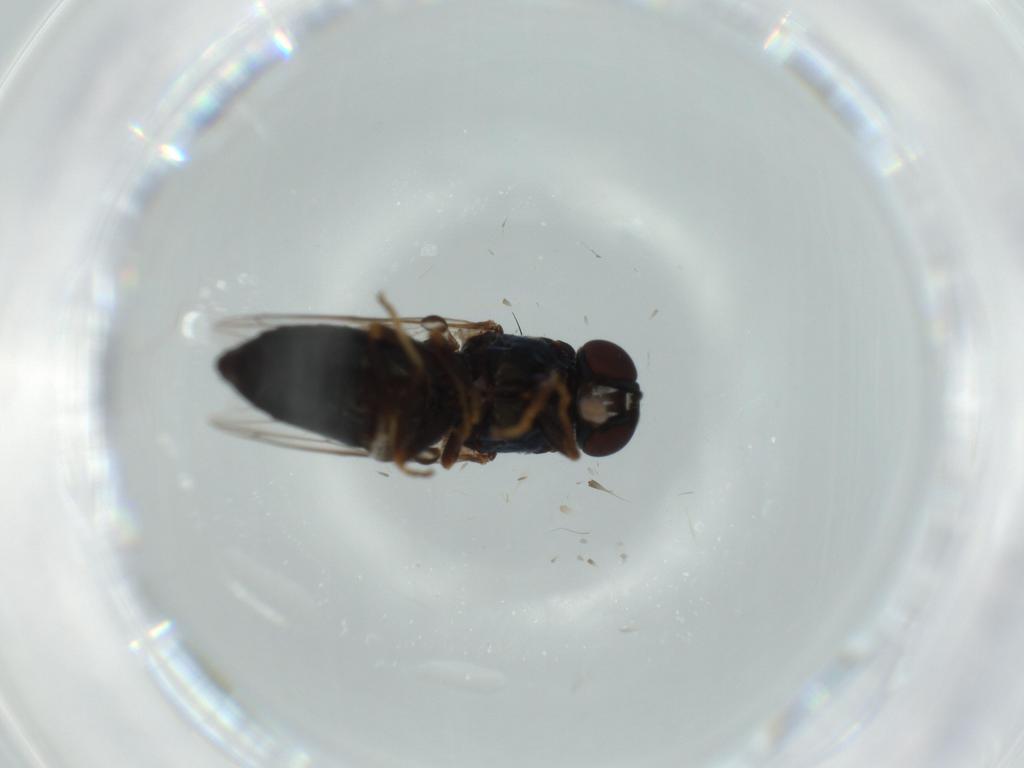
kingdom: Animalia
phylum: Arthropoda
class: Insecta
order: Diptera
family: Scenopinidae
